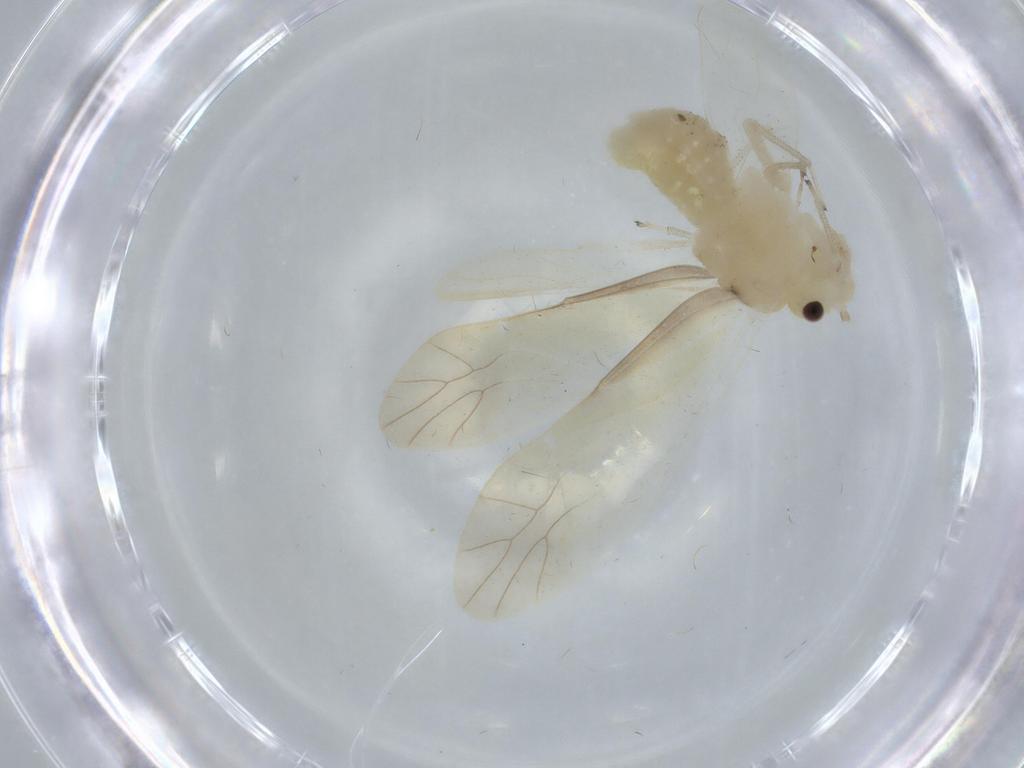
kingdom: Animalia
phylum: Arthropoda
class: Insecta
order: Psocodea
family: Caeciliusidae
